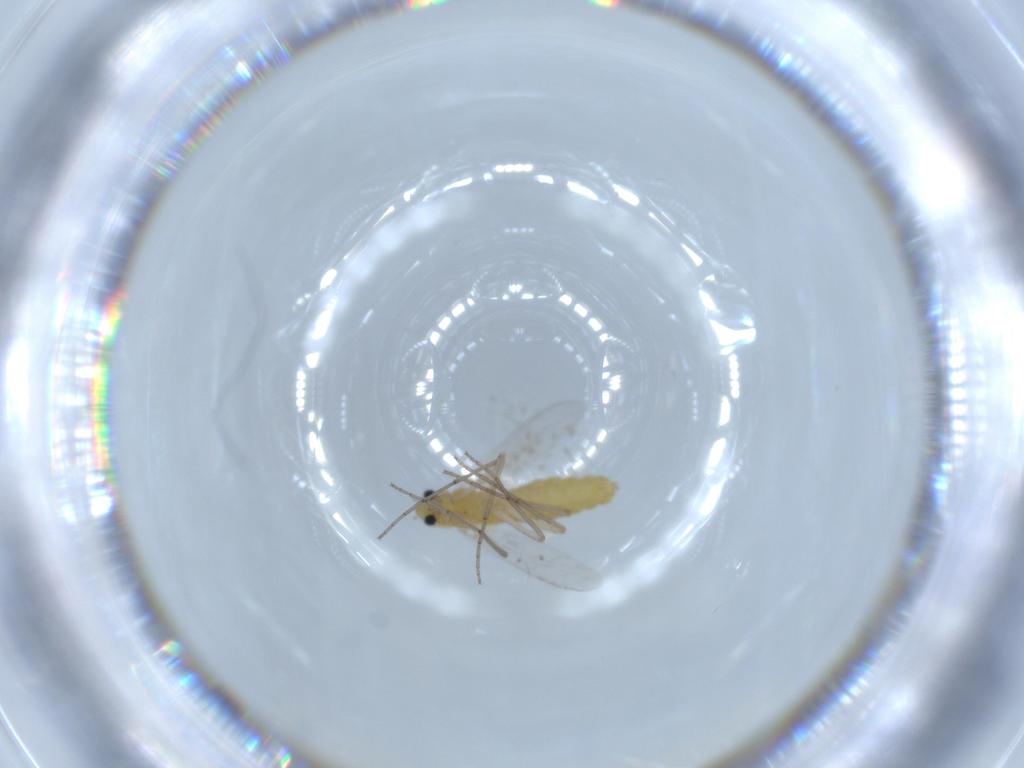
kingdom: Animalia
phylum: Arthropoda
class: Insecta
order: Diptera
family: Chironomidae
